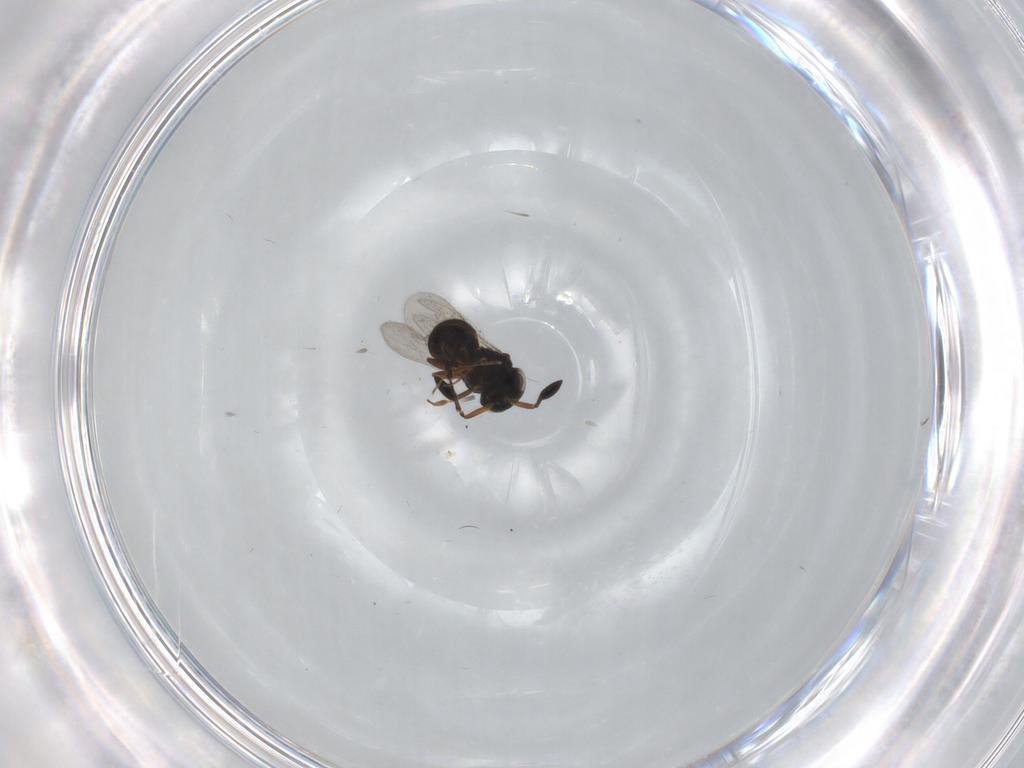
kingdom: Animalia
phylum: Arthropoda
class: Insecta
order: Hymenoptera
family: Scelionidae
